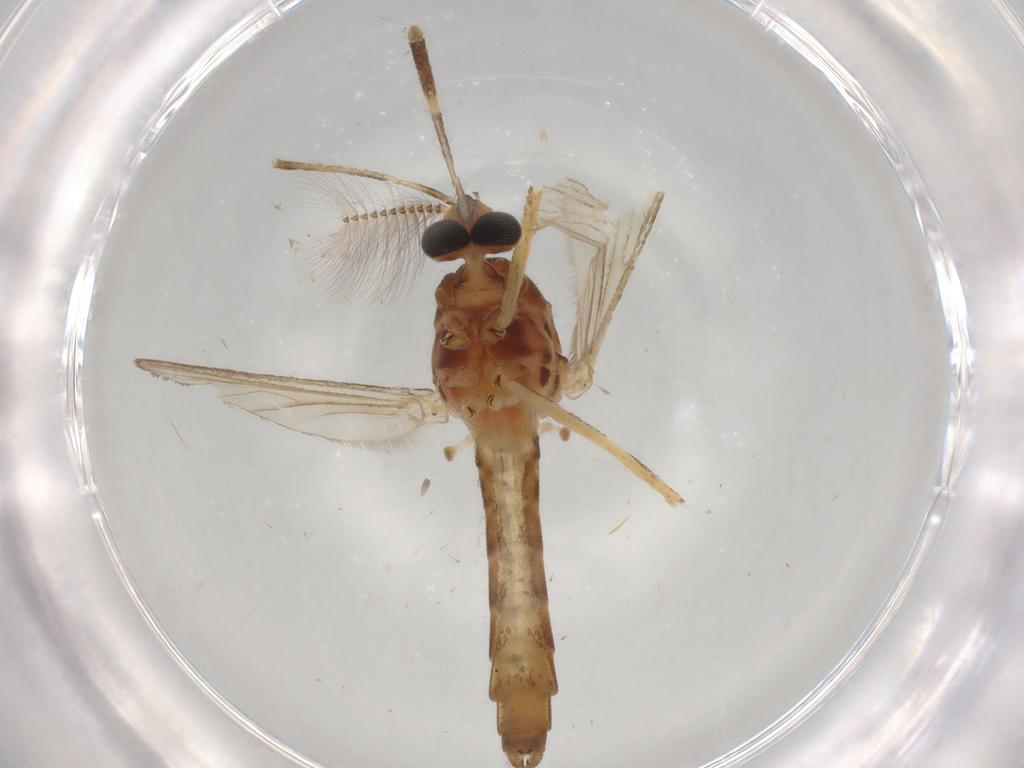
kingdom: Animalia
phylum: Arthropoda
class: Insecta
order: Diptera
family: Sciaridae
